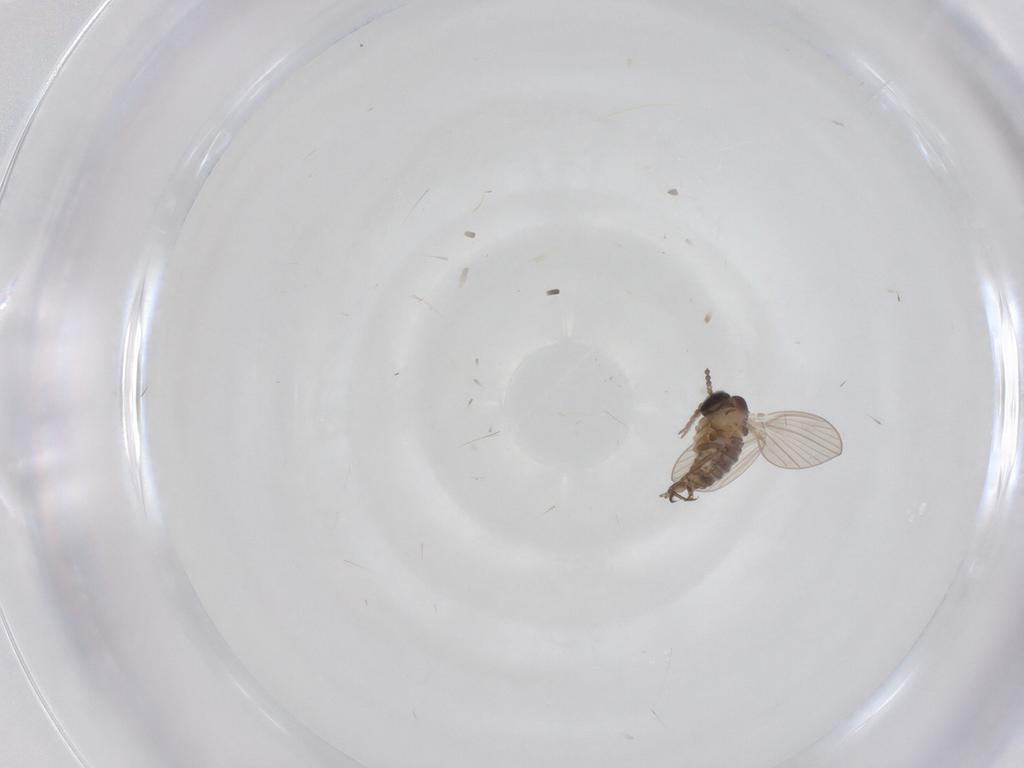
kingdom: Animalia
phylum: Arthropoda
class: Insecta
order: Diptera
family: Psychodidae
